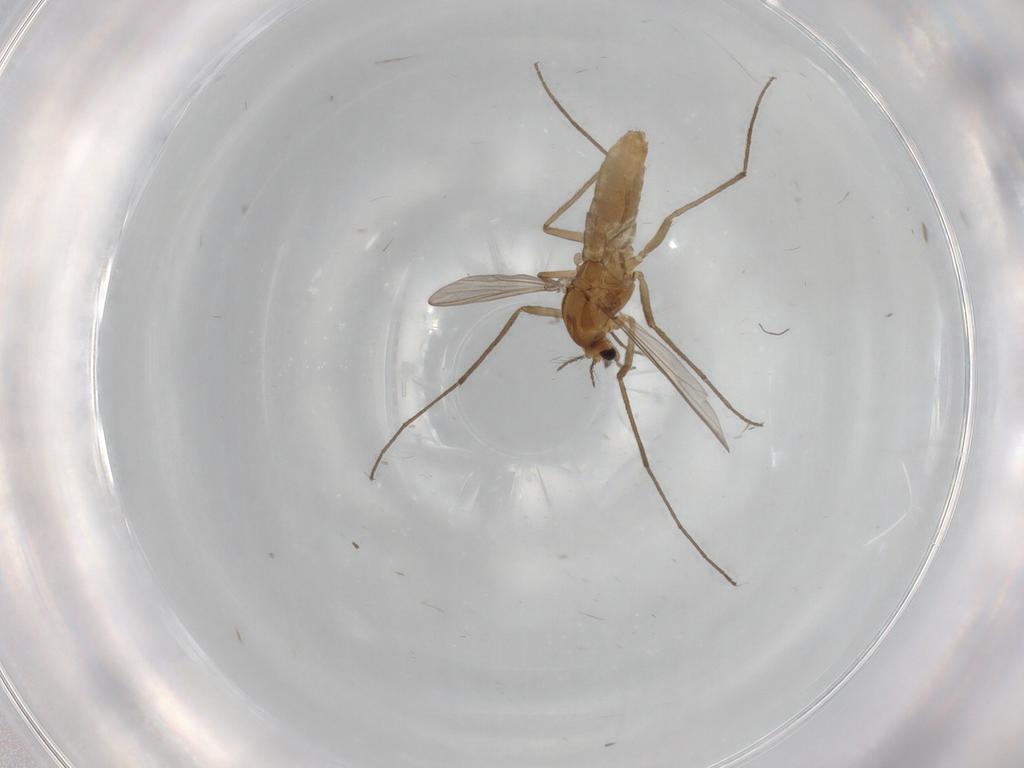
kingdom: Animalia
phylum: Arthropoda
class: Insecta
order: Diptera
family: Chironomidae
